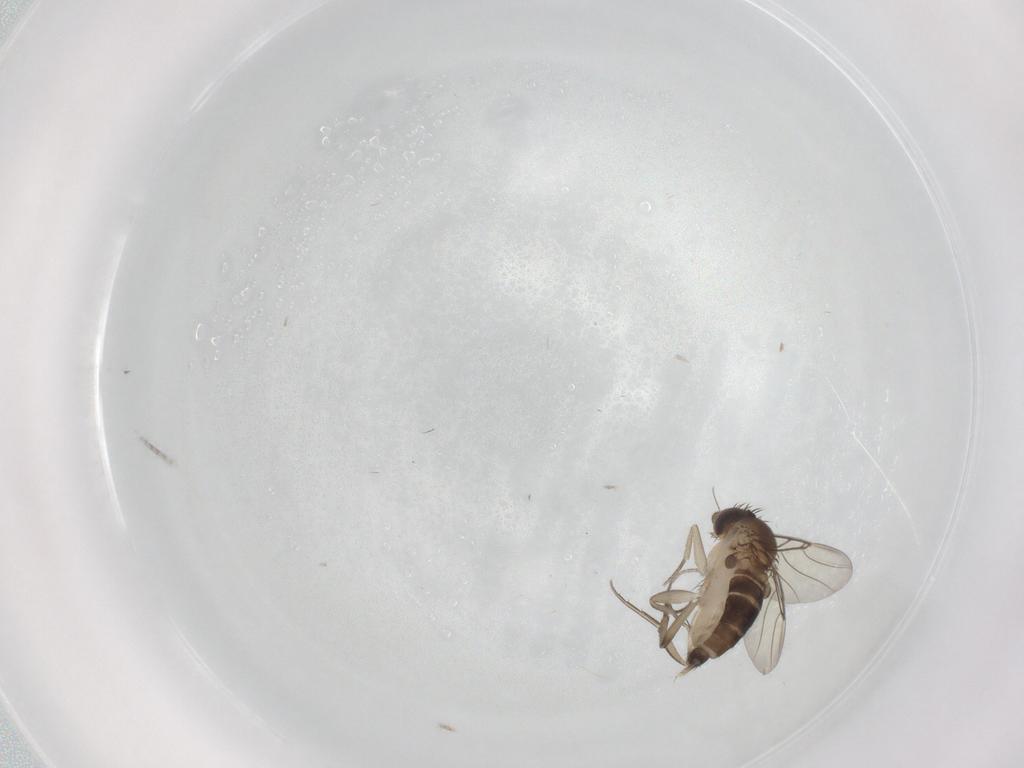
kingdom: Animalia
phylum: Arthropoda
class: Insecta
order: Diptera
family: Phoridae
